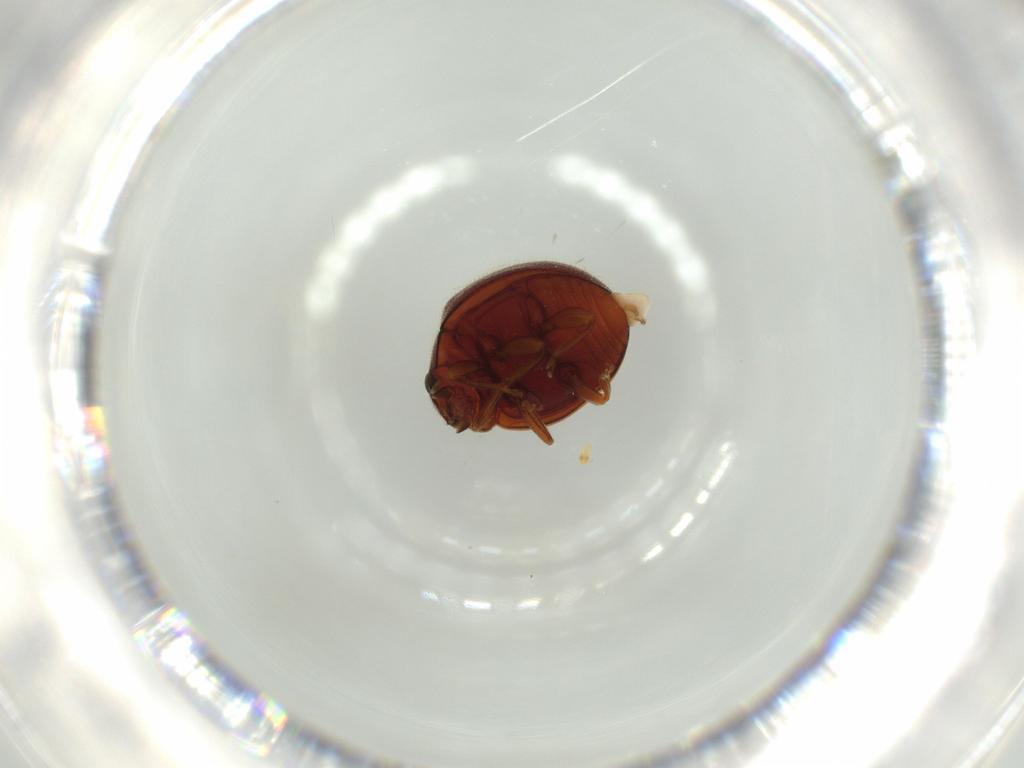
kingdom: Animalia
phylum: Arthropoda
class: Insecta
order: Coleoptera
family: Coccinellidae
